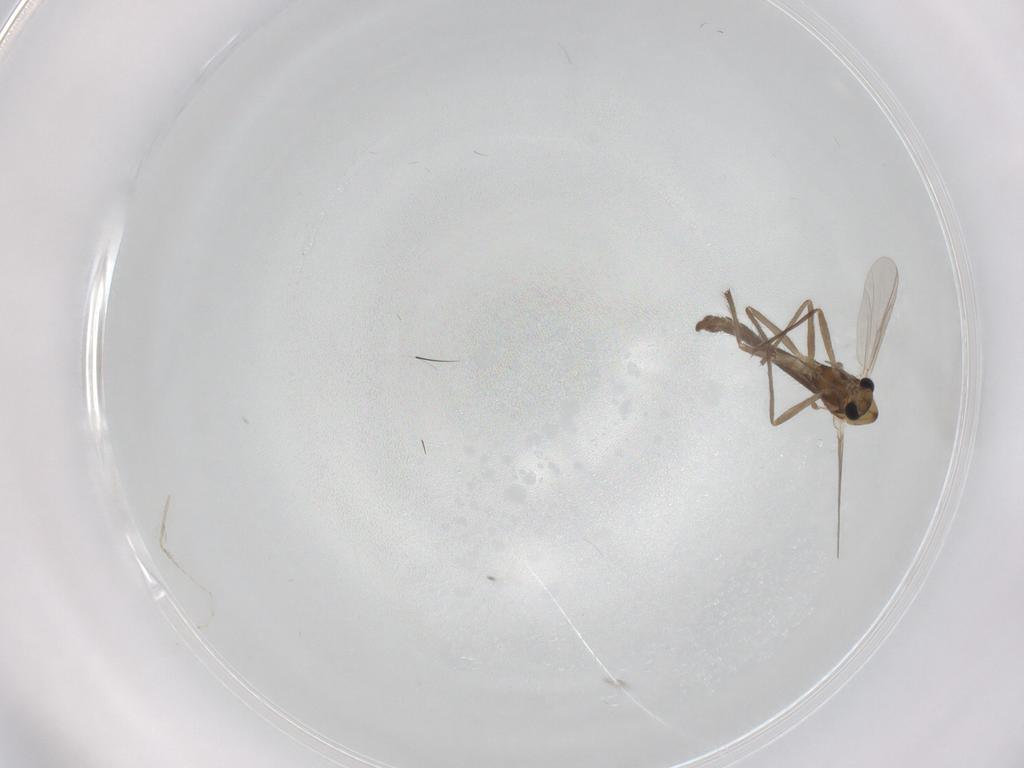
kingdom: Animalia
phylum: Arthropoda
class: Insecta
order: Diptera
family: Chironomidae
